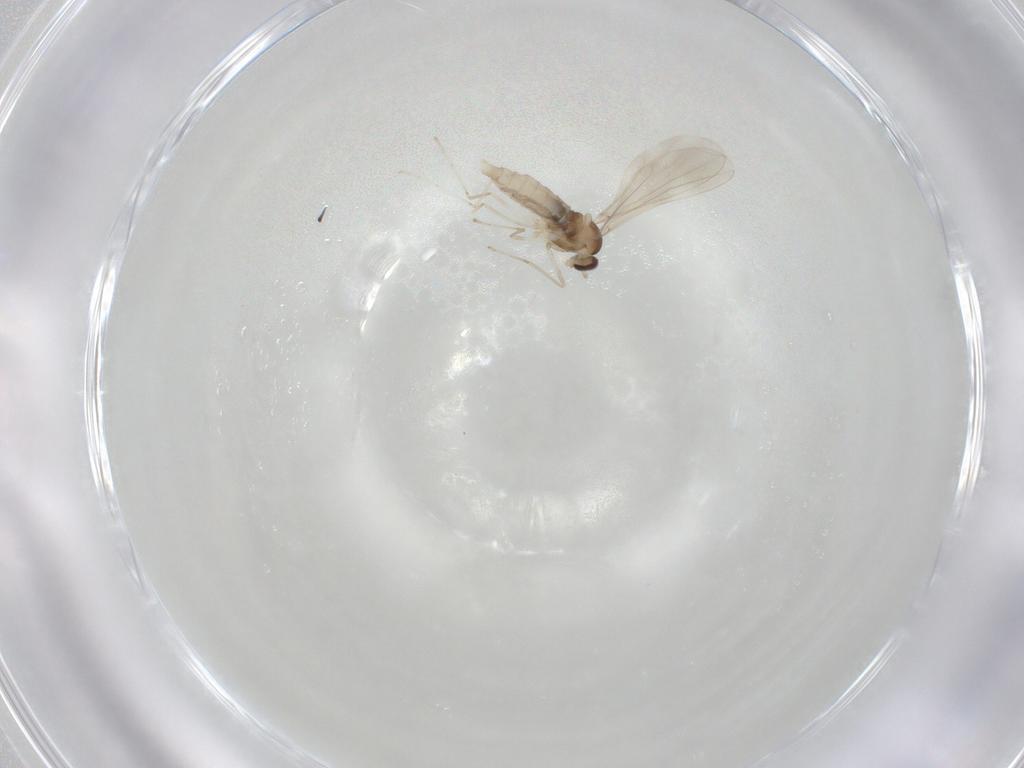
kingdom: Animalia
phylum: Arthropoda
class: Insecta
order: Diptera
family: Cecidomyiidae
